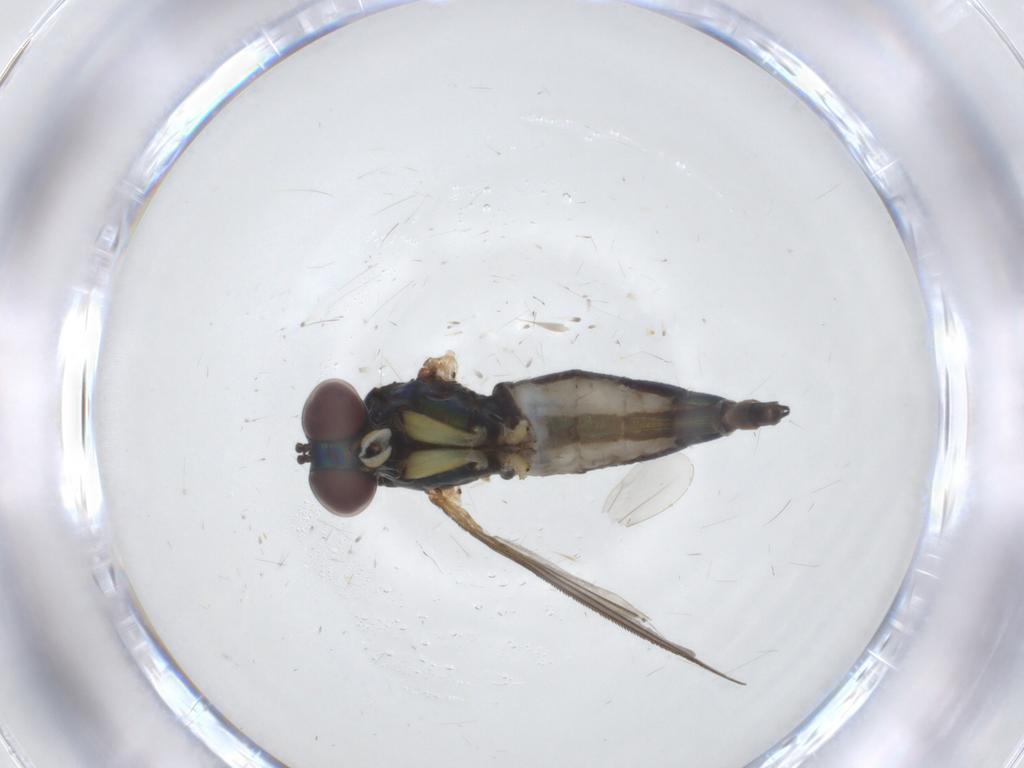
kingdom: Animalia
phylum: Arthropoda
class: Insecta
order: Diptera
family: Dolichopodidae
